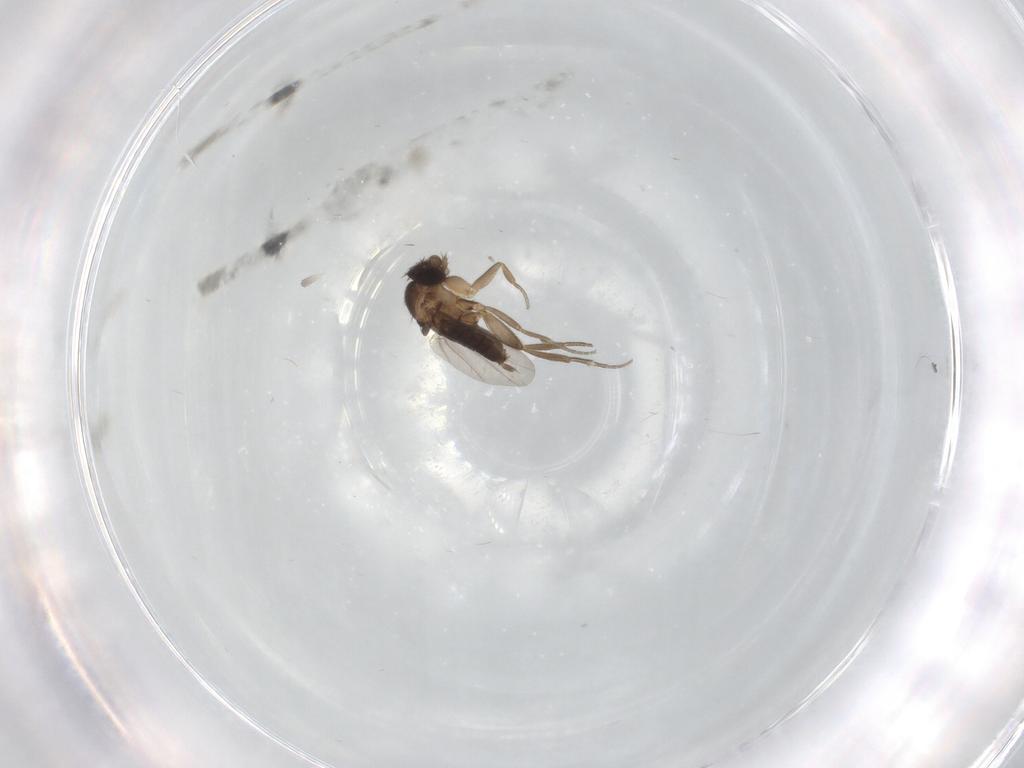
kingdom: Animalia
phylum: Arthropoda
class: Insecta
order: Diptera
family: Phoridae
